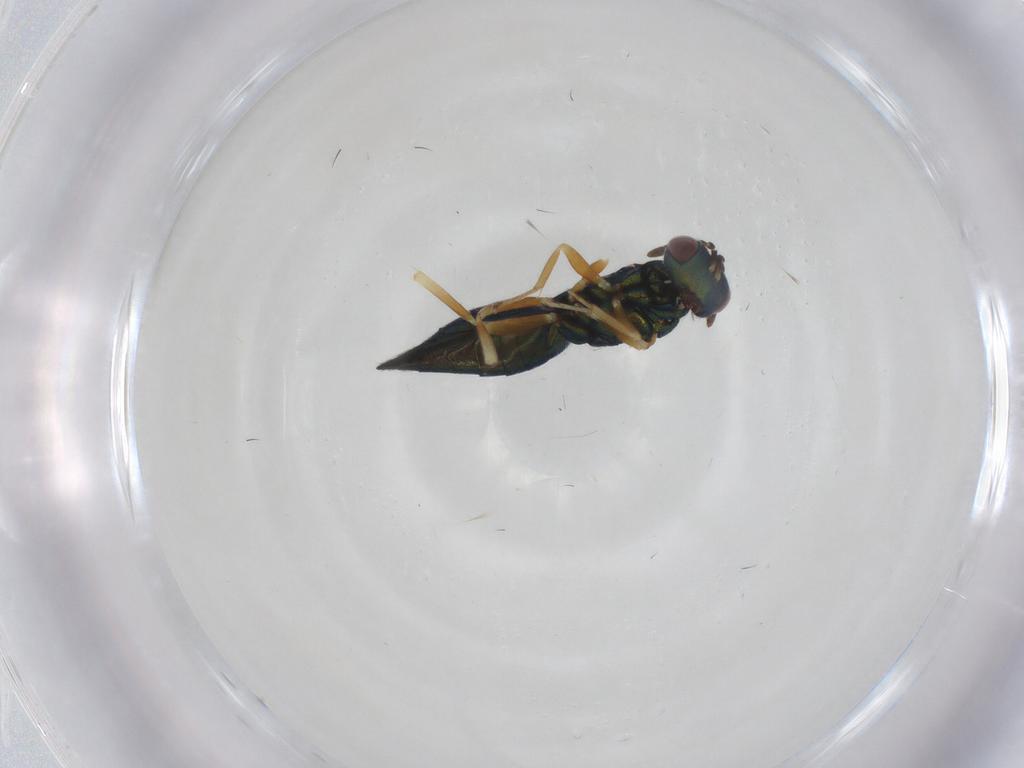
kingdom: Animalia
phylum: Arthropoda
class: Insecta
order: Hymenoptera
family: Pteromalidae
